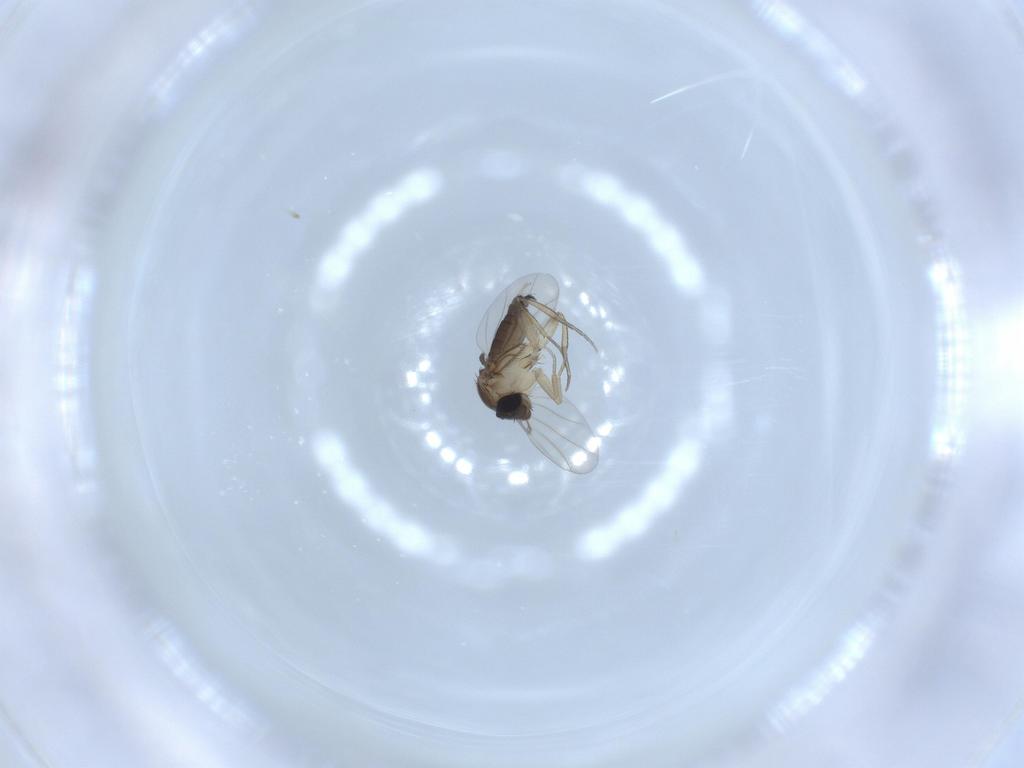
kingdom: Animalia
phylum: Arthropoda
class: Insecta
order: Diptera
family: Phoridae
